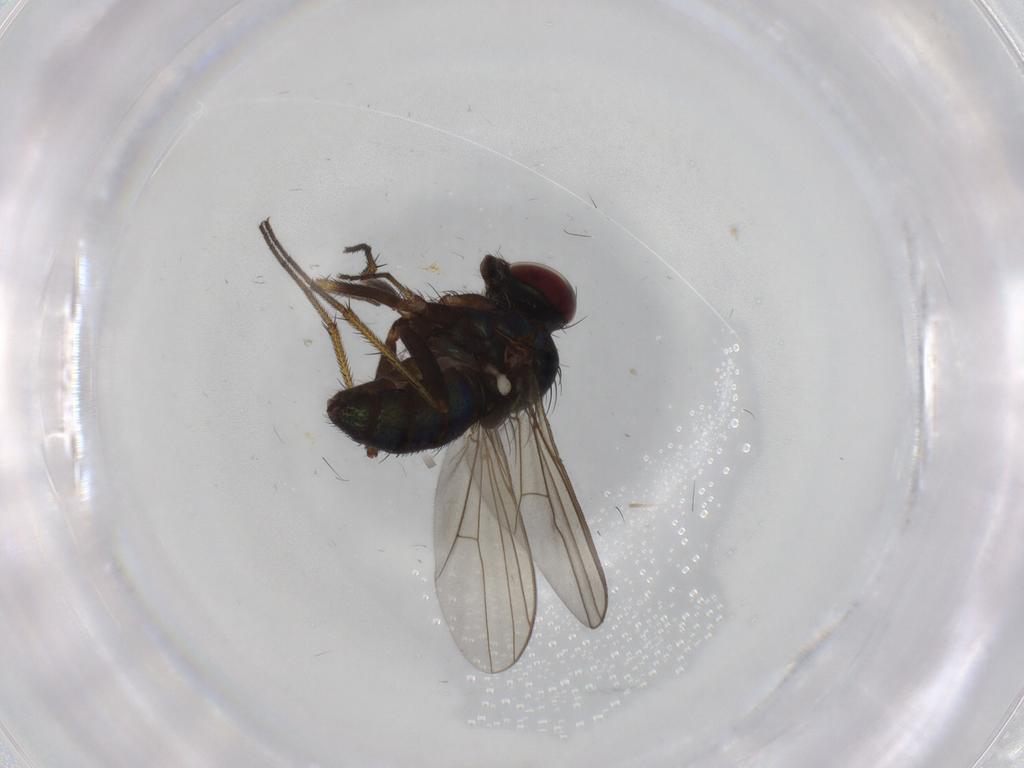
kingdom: Animalia
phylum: Arthropoda
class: Insecta
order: Diptera
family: Dolichopodidae
